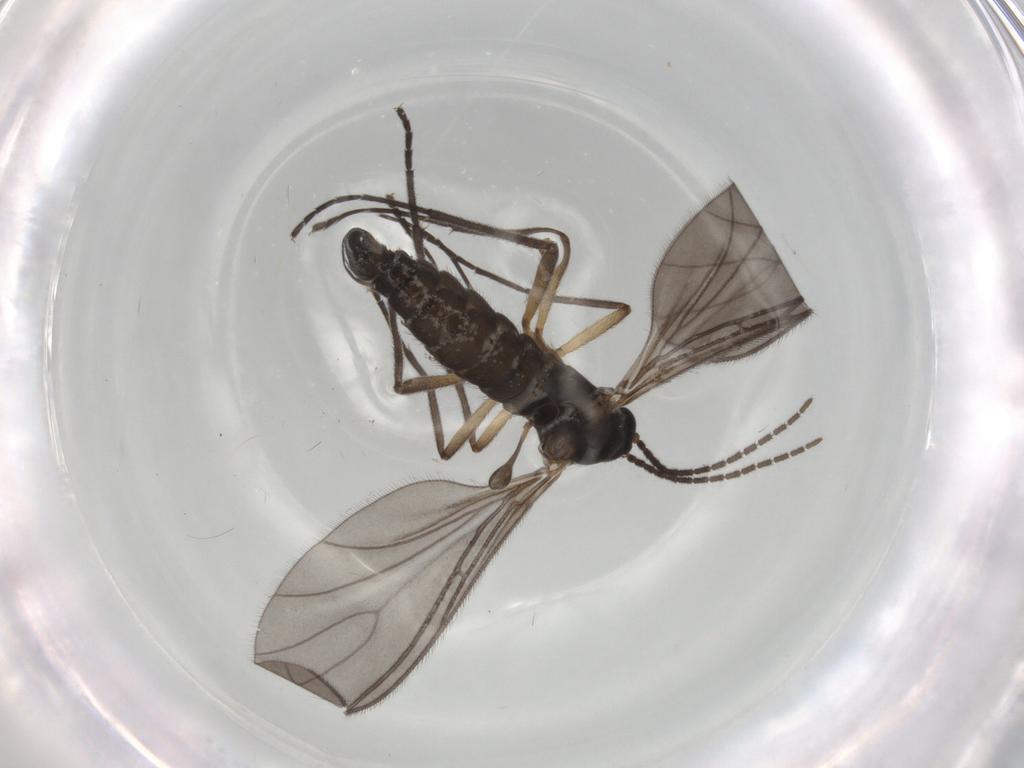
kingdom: Animalia
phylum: Arthropoda
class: Insecta
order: Diptera
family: Sciaridae
